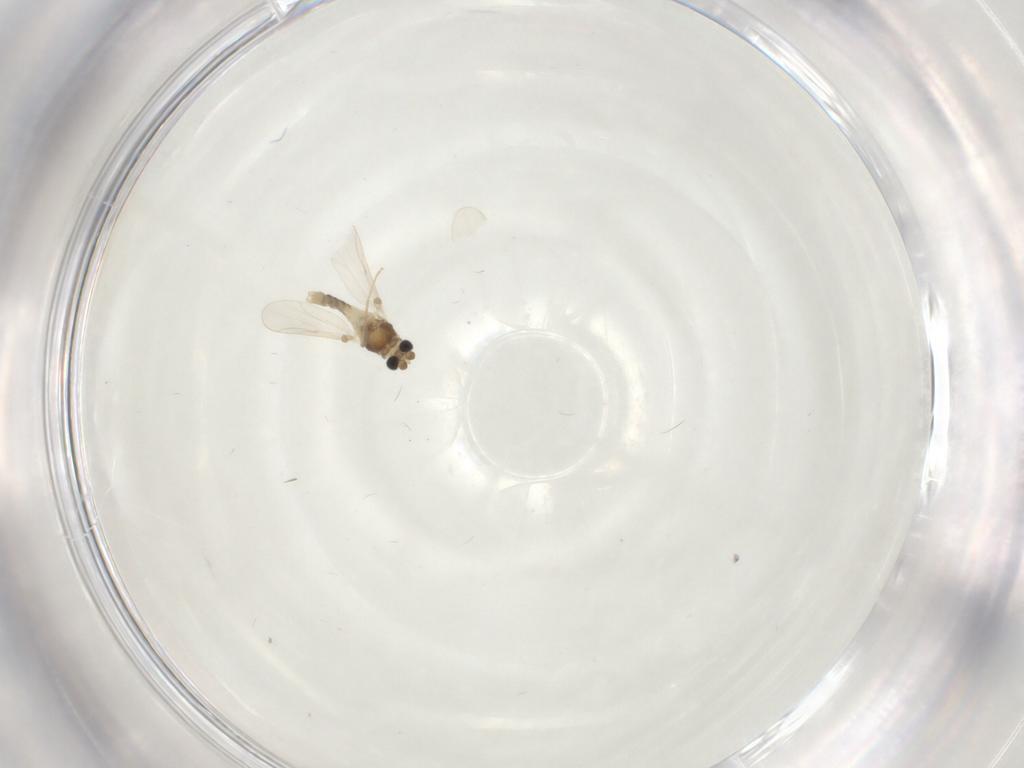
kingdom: Animalia
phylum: Arthropoda
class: Insecta
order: Diptera
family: Chironomidae
